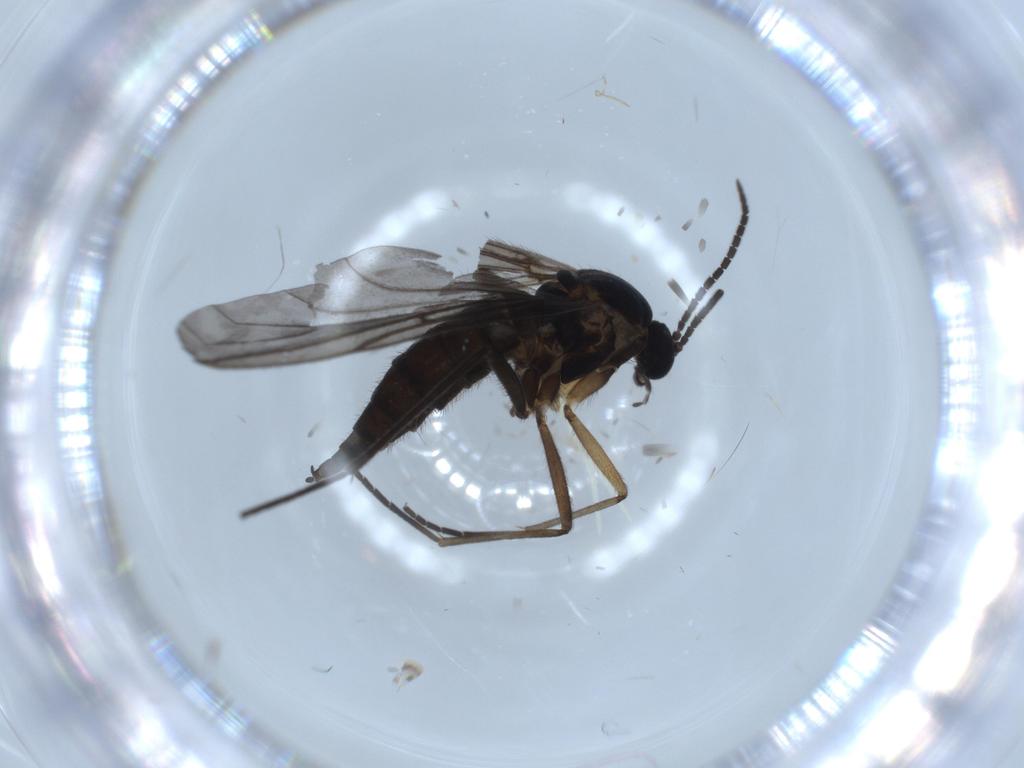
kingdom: Animalia
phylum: Arthropoda
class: Insecta
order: Diptera
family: Sciaridae
